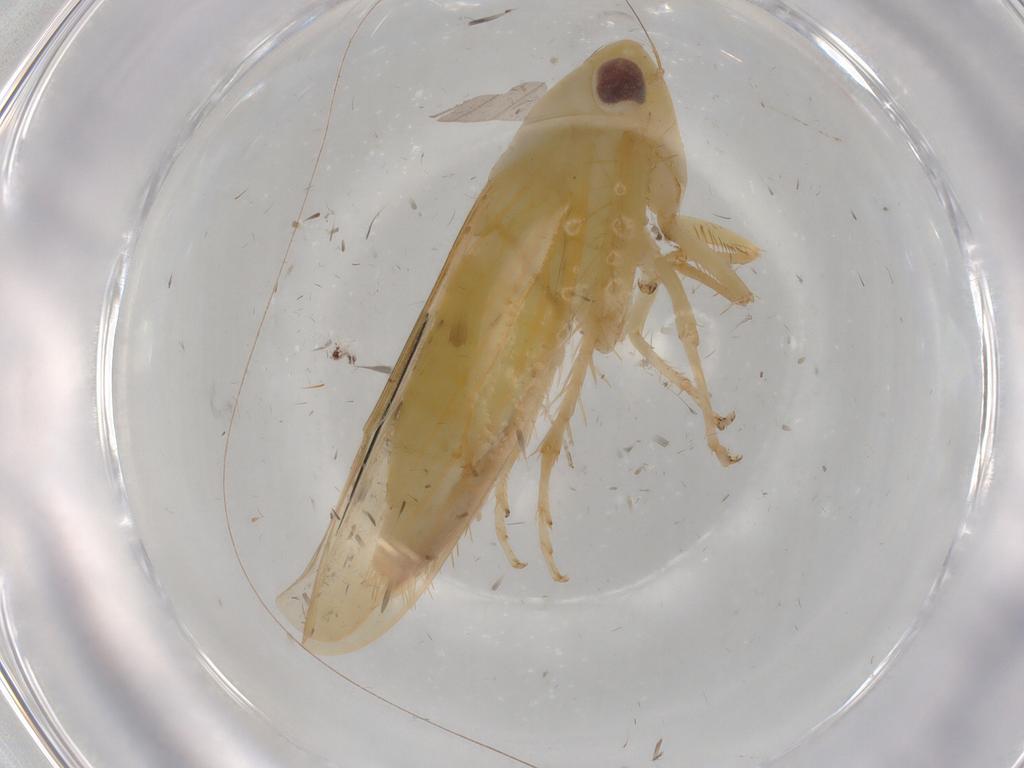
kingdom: Animalia
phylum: Arthropoda
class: Insecta
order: Hemiptera
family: Cicadellidae
